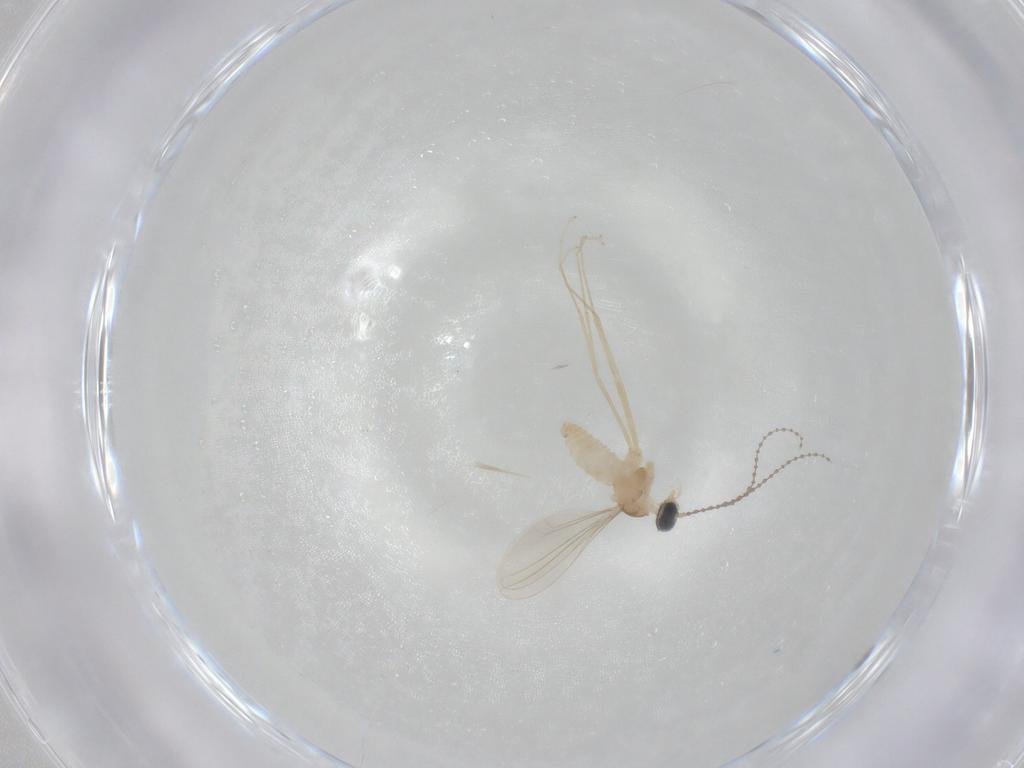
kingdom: Animalia
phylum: Arthropoda
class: Insecta
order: Diptera
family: Cecidomyiidae
